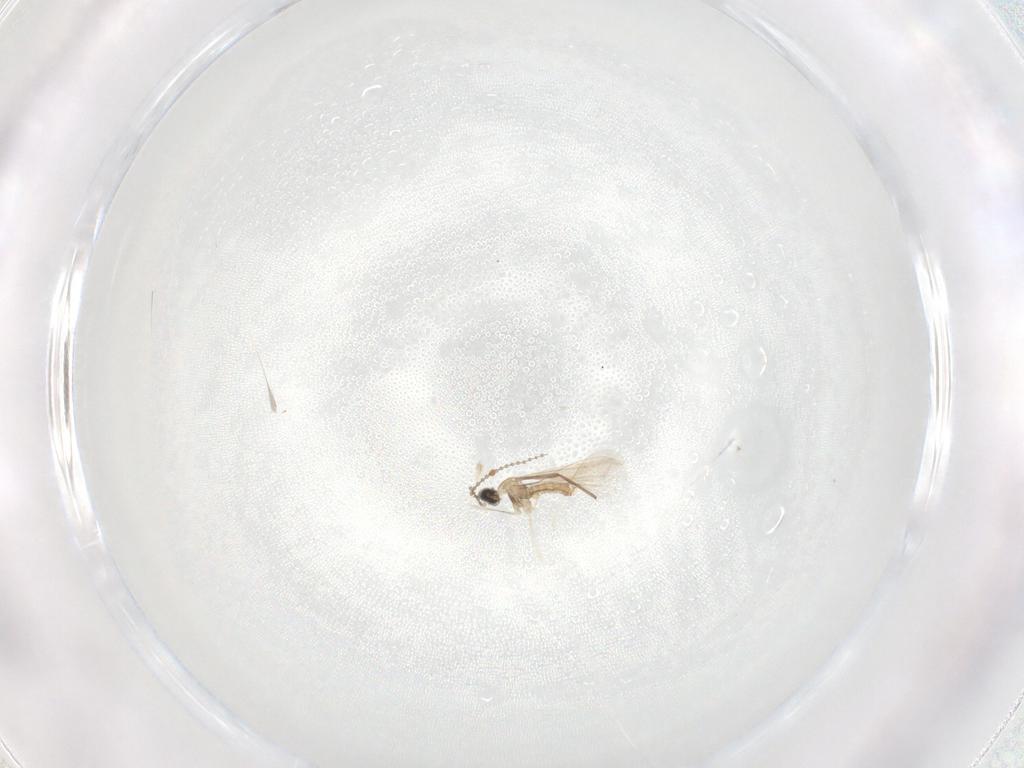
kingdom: Animalia
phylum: Arthropoda
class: Insecta
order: Diptera
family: Cecidomyiidae
